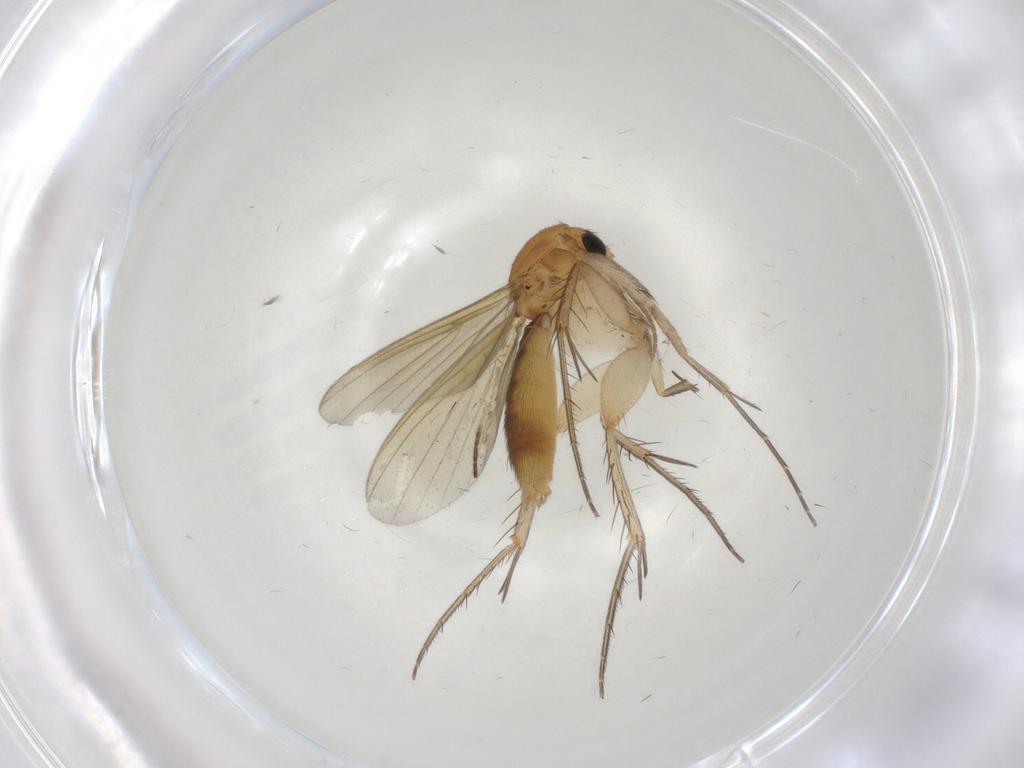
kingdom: Animalia
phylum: Arthropoda
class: Insecta
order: Diptera
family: Chironomidae
